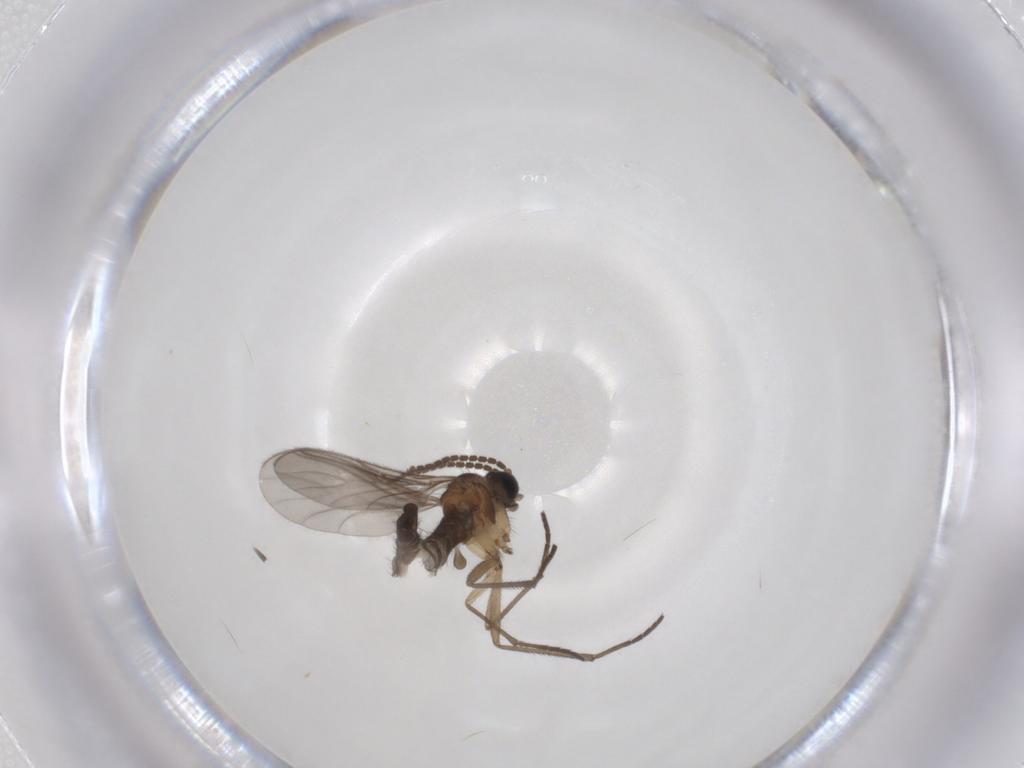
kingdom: Animalia
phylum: Arthropoda
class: Insecta
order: Diptera
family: Sciaridae
